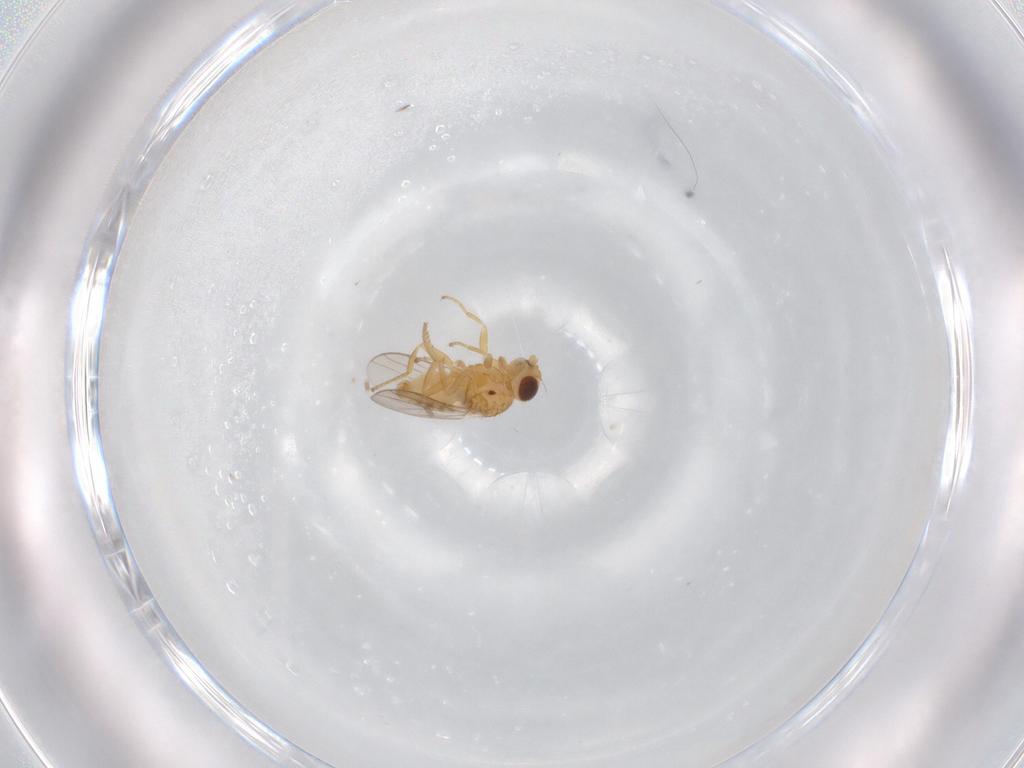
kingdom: Animalia
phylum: Arthropoda
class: Insecta
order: Diptera
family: Chloropidae
